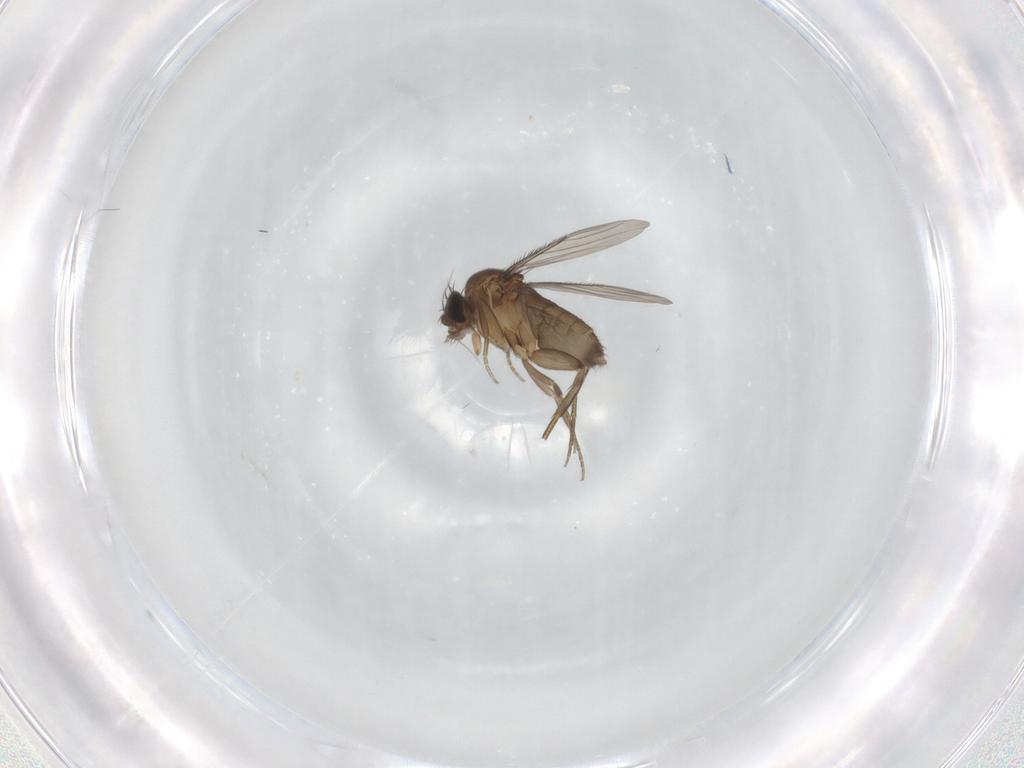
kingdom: Animalia
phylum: Arthropoda
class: Insecta
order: Diptera
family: Phoridae
